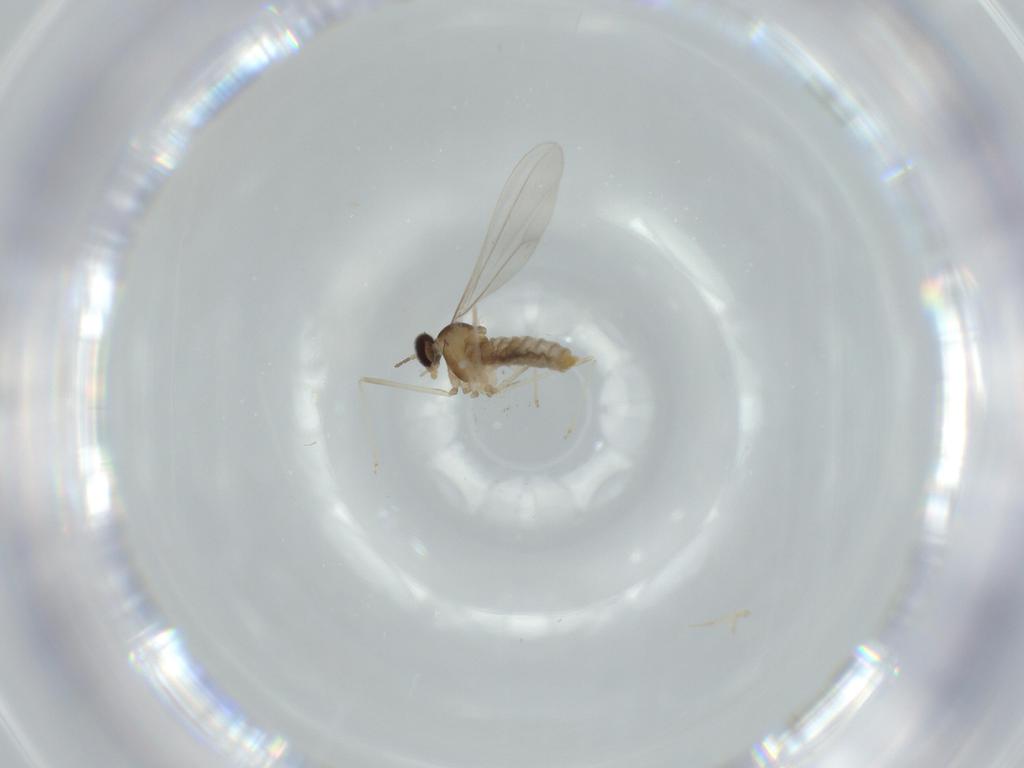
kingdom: Animalia
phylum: Arthropoda
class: Insecta
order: Diptera
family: Cecidomyiidae
